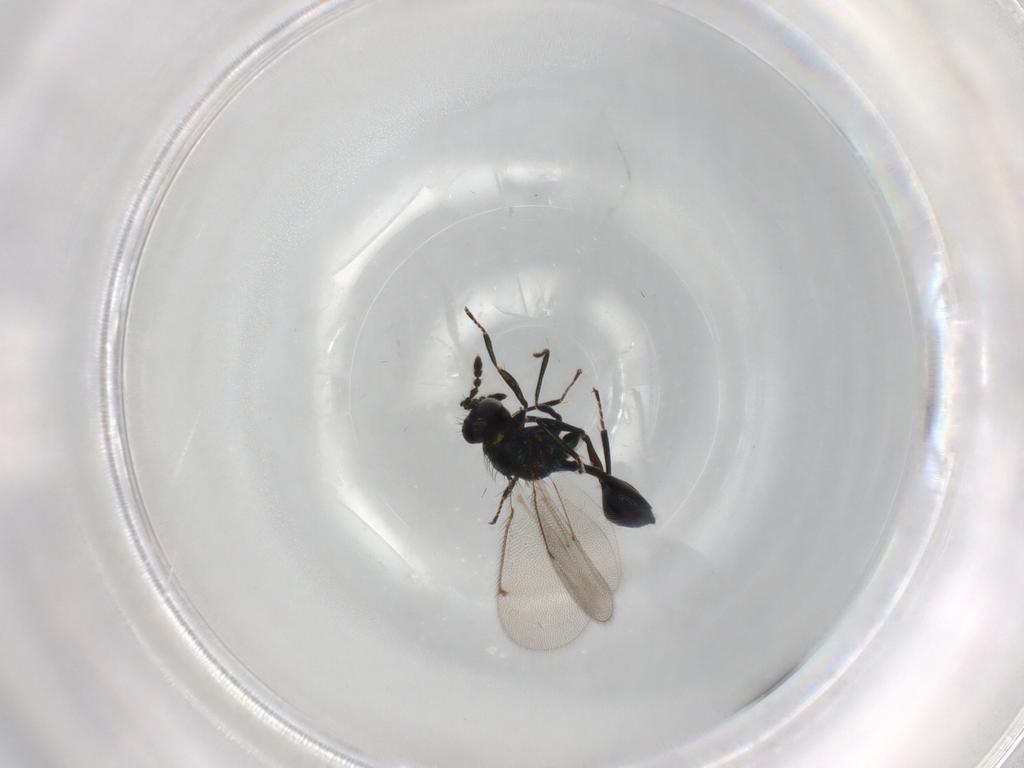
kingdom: Animalia
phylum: Arthropoda
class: Insecta
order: Hymenoptera
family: Eulophidae
